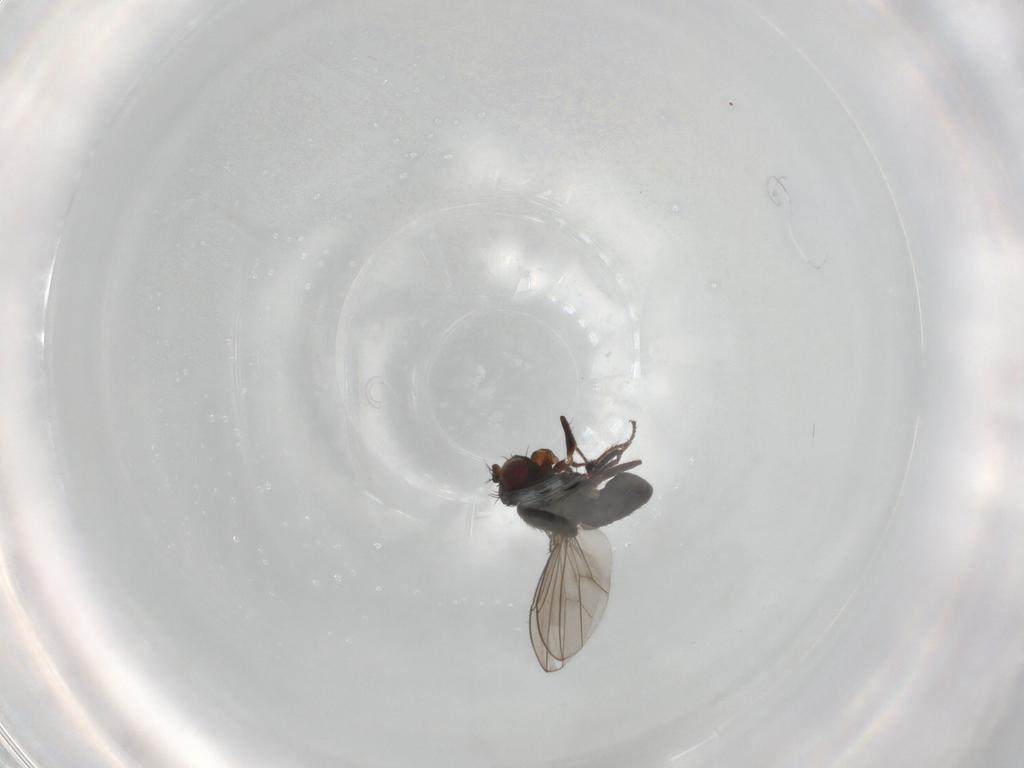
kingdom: Animalia
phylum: Arthropoda
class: Insecta
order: Diptera
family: Ephydridae
